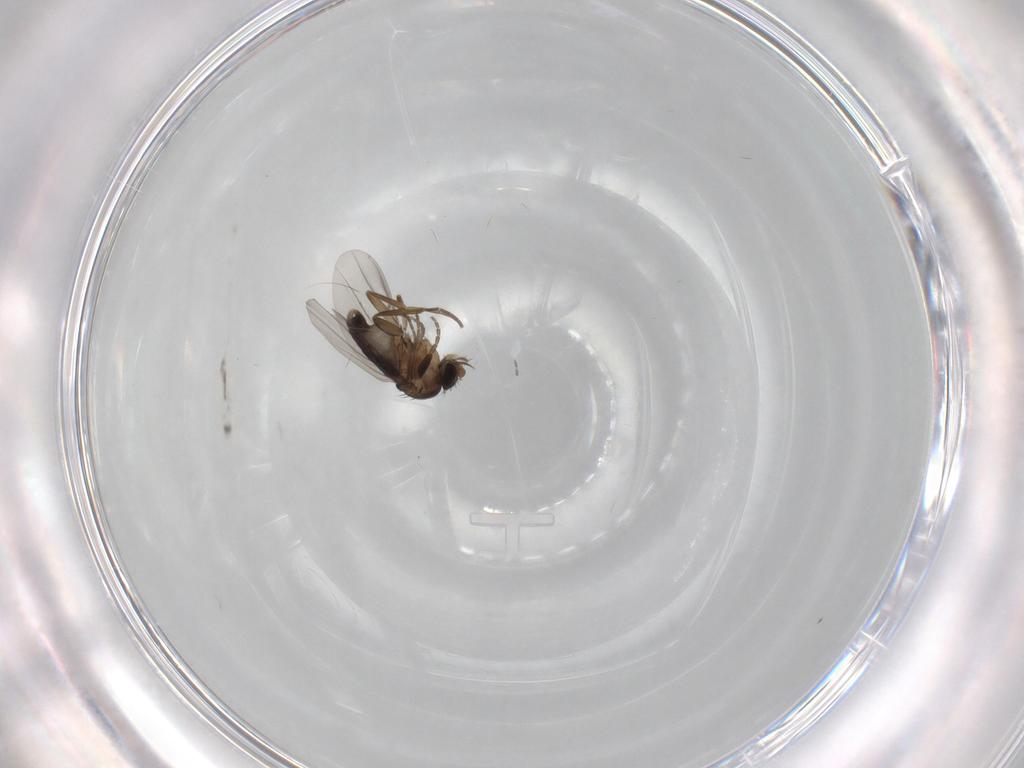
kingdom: Animalia
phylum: Arthropoda
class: Insecta
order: Diptera
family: Phoridae
